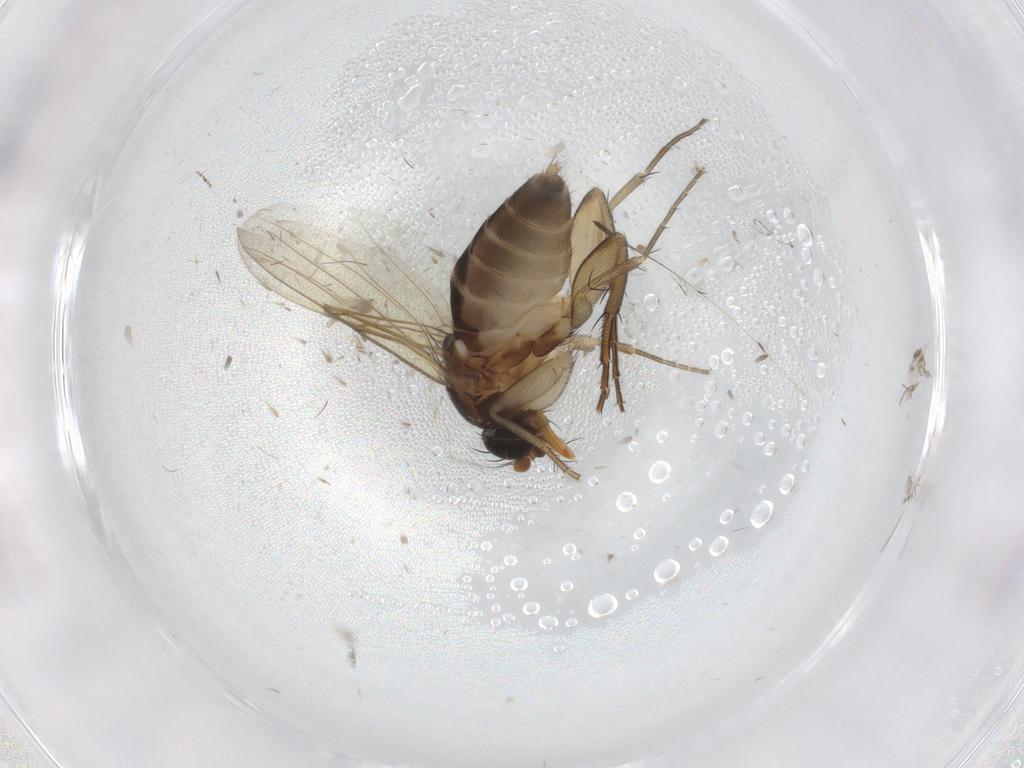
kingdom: Animalia
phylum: Arthropoda
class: Insecta
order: Diptera
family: Phoridae
